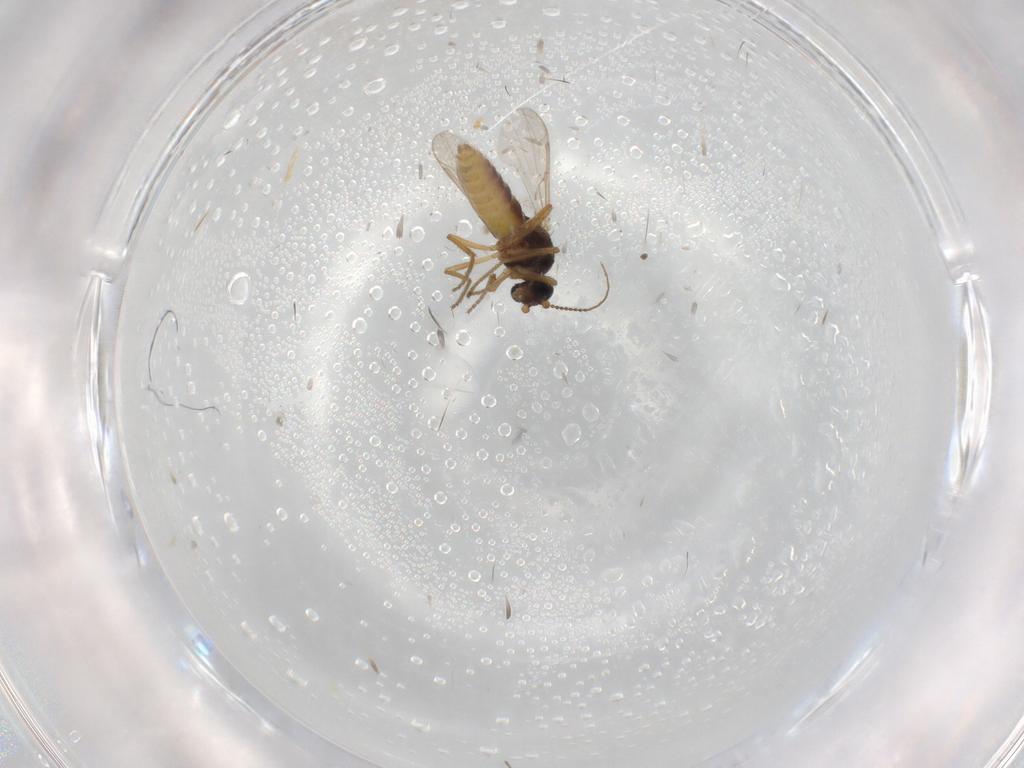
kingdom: Animalia
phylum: Arthropoda
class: Insecta
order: Diptera
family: Ceratopogonidae
